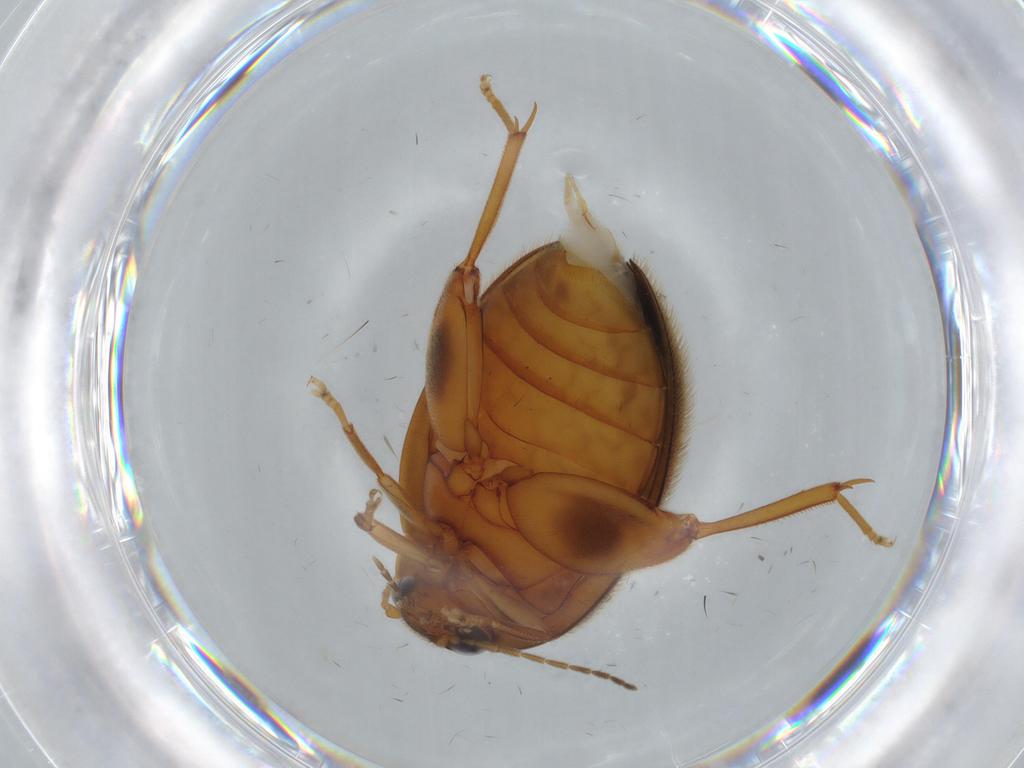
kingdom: Animalia
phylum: Arthropoda
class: Insecta
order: Coleoptera
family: Scirtidae
